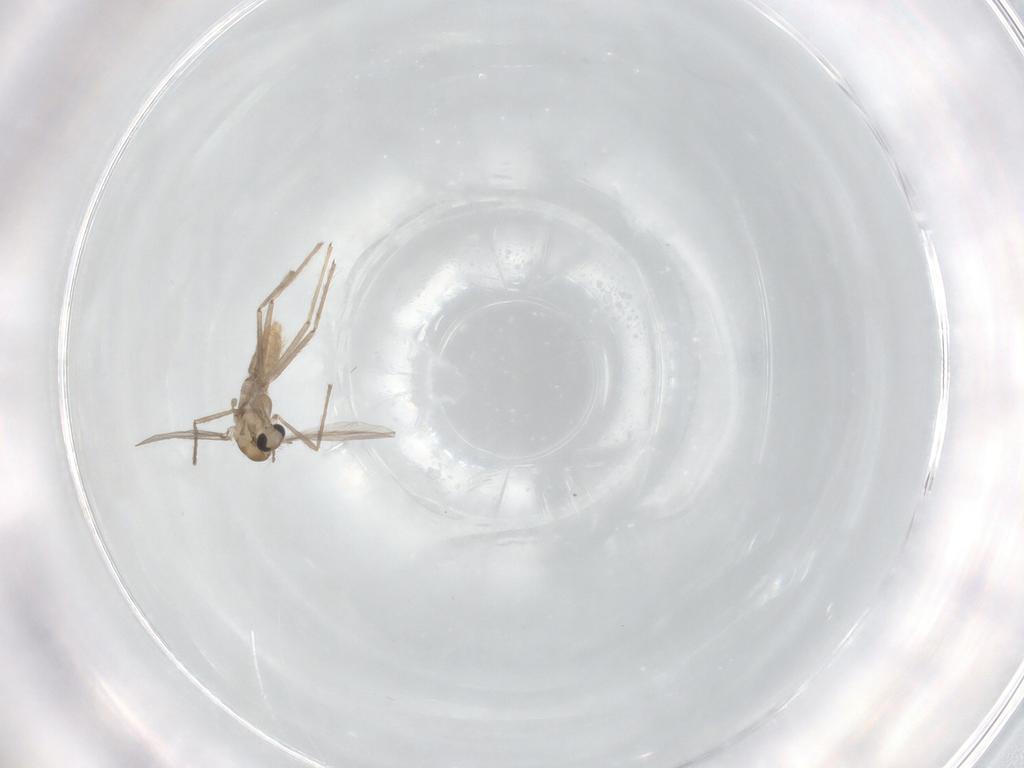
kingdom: Animalia
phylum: Arthropoda
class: Insecta
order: Diptera
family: Chironomidae
